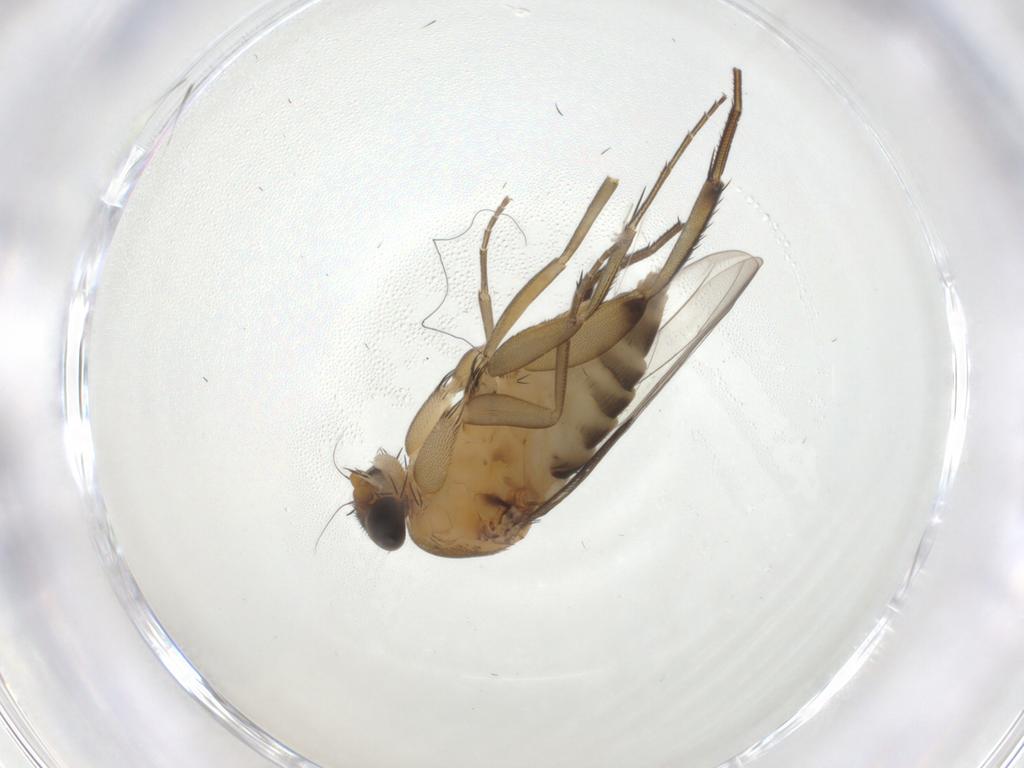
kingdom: Animalia
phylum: Arthropoda
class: Insecta
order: Diptera
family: Phoridae
